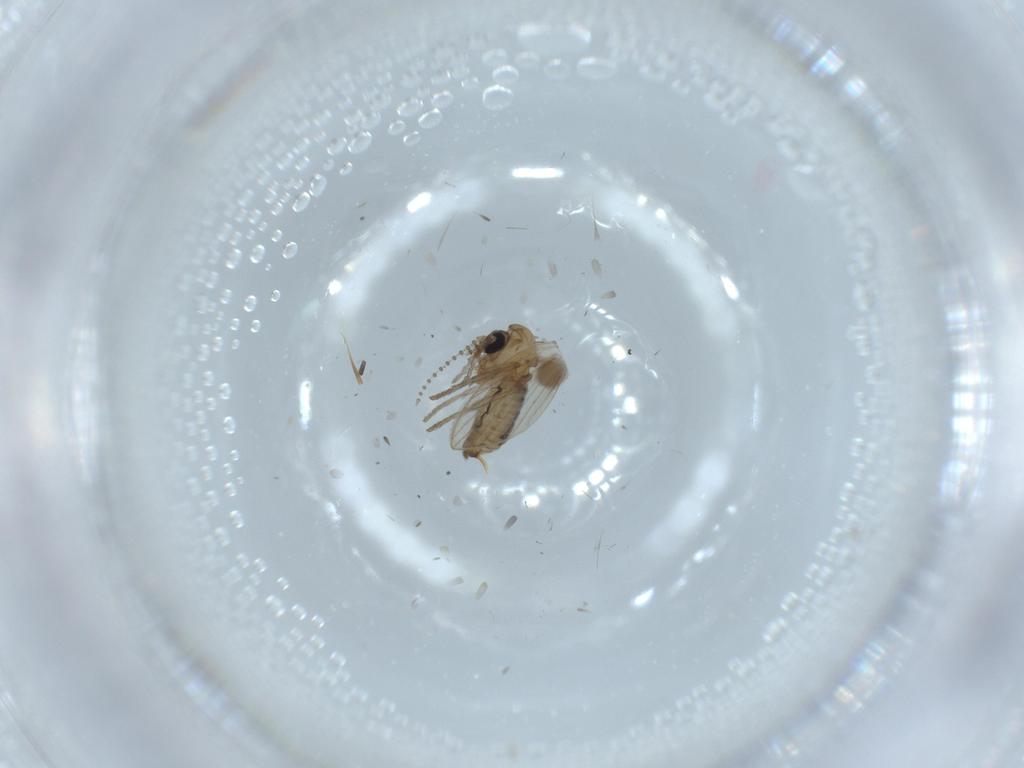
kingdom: Animalia
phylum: Arthropoda
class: Insecta
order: Diptera
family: Psychodidae
